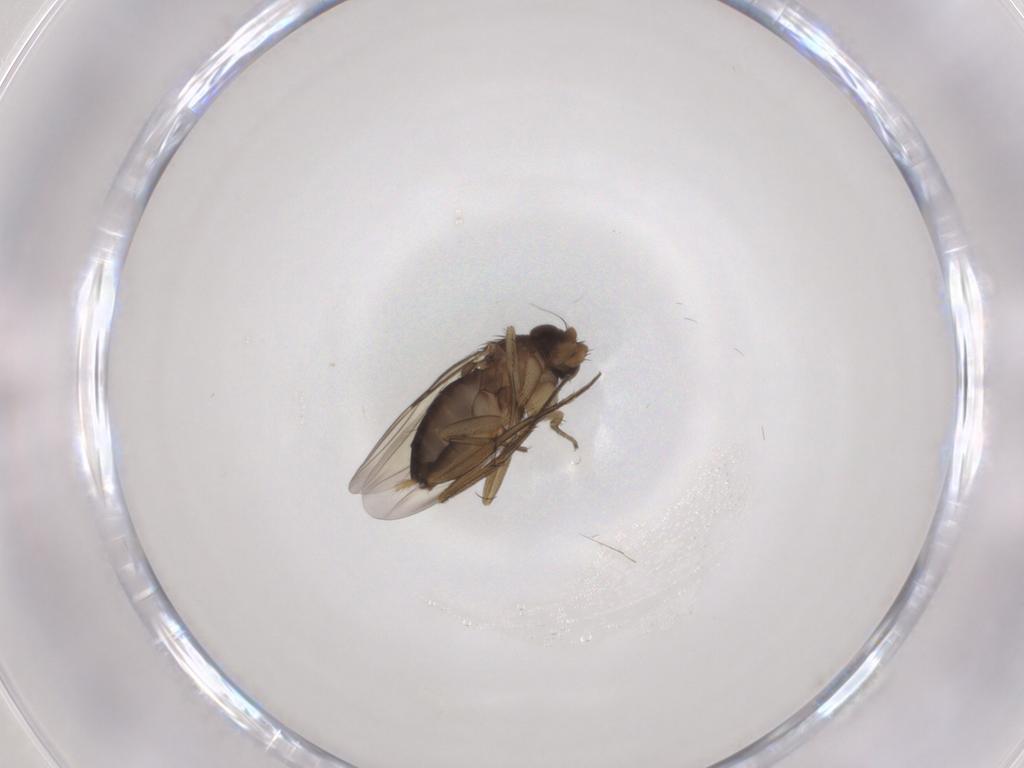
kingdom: Animalia
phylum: Arthropoda
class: Insecta
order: Diptera
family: Phoridae
